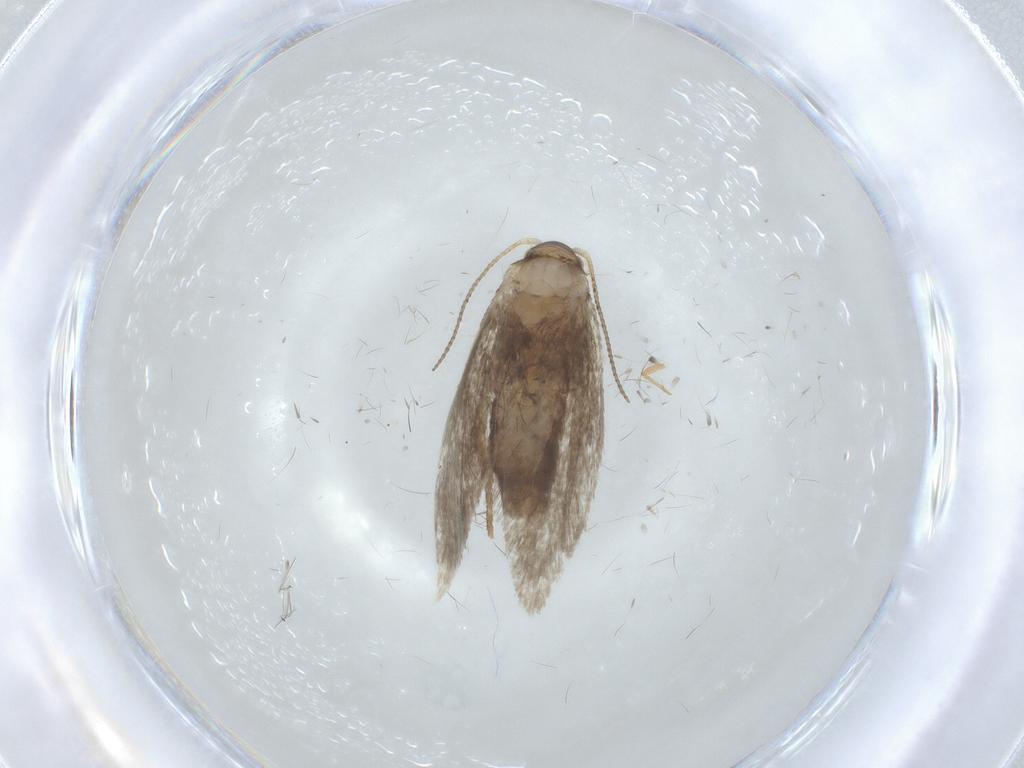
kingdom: Animalia
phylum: Arthropoda
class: Insecta
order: Lepidoptera
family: Dryadaulidae
